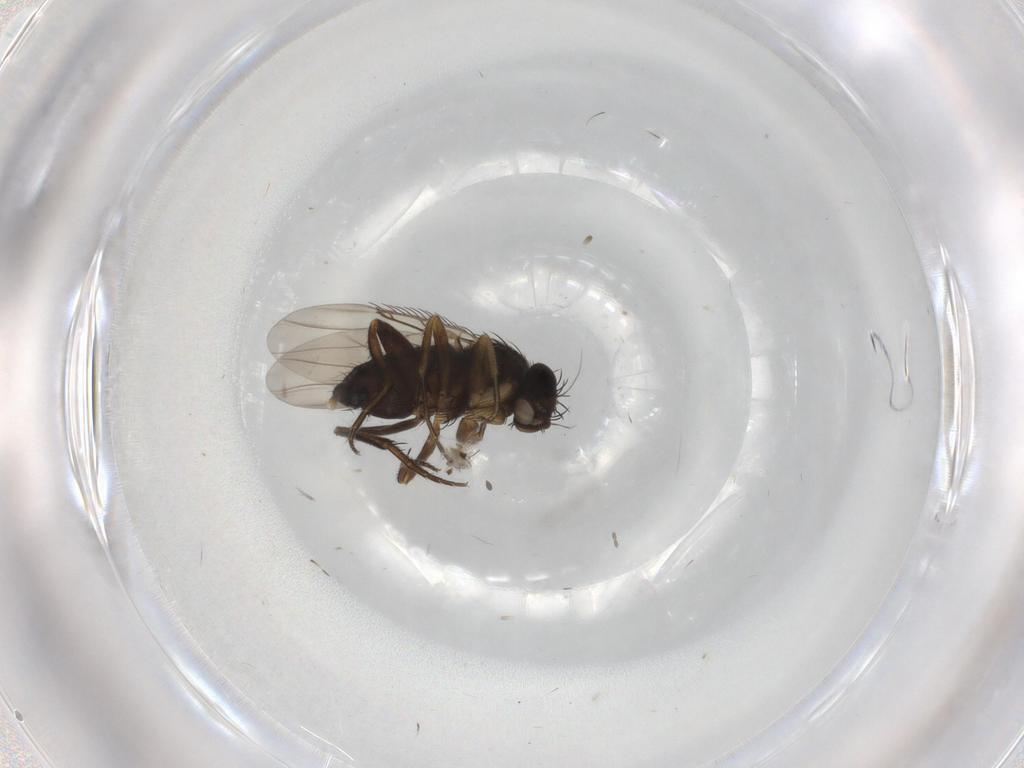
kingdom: Animalia
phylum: Arthropoda
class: Insecta
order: Diptera
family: Phoridae
